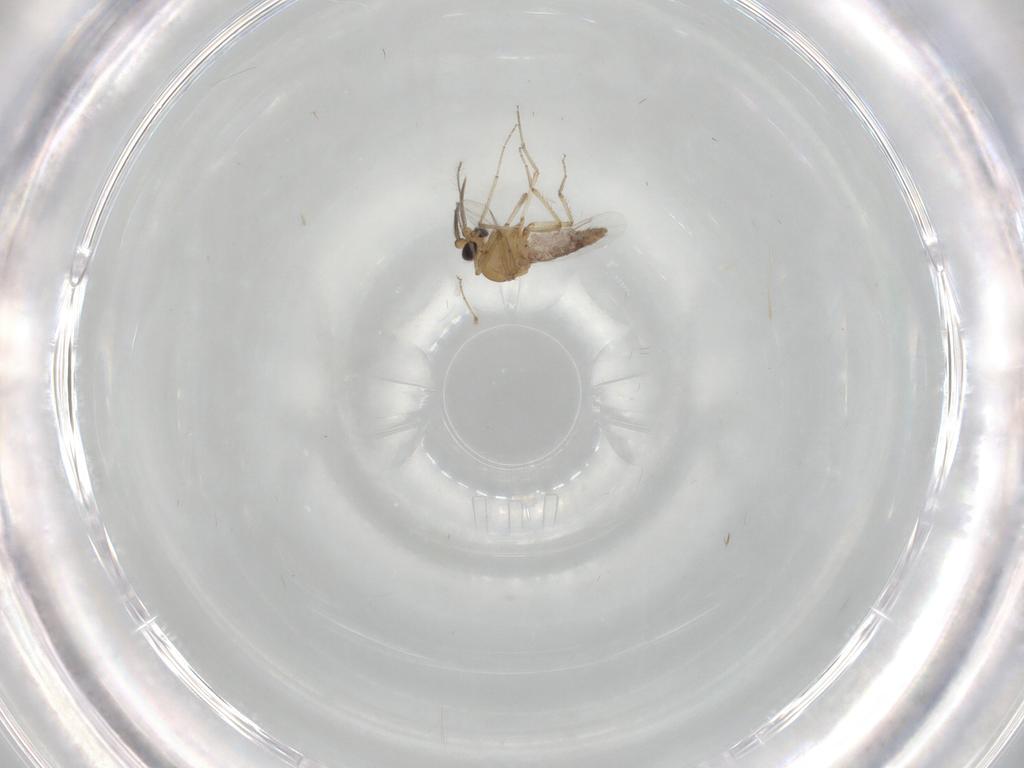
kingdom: Animalia
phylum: Arthropoda
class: Insecta
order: Diptera
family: Ceratopogonidae
